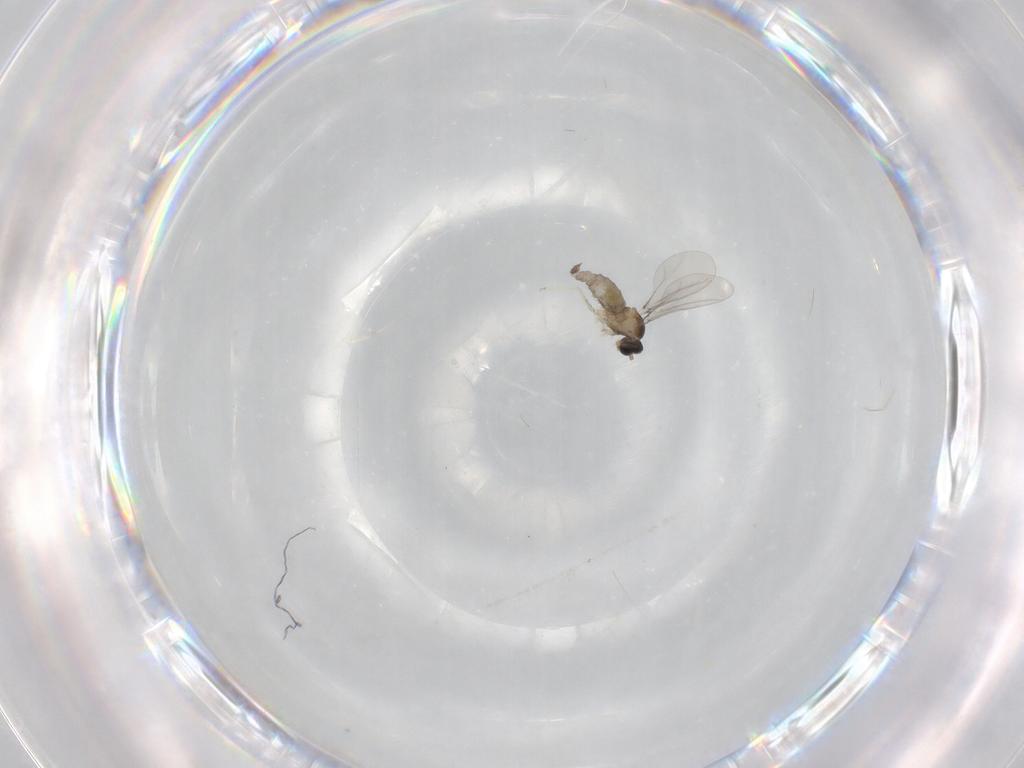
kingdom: Animalia
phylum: Arthropoda
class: Insecta
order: Diptera
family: Cecidomyiidae
